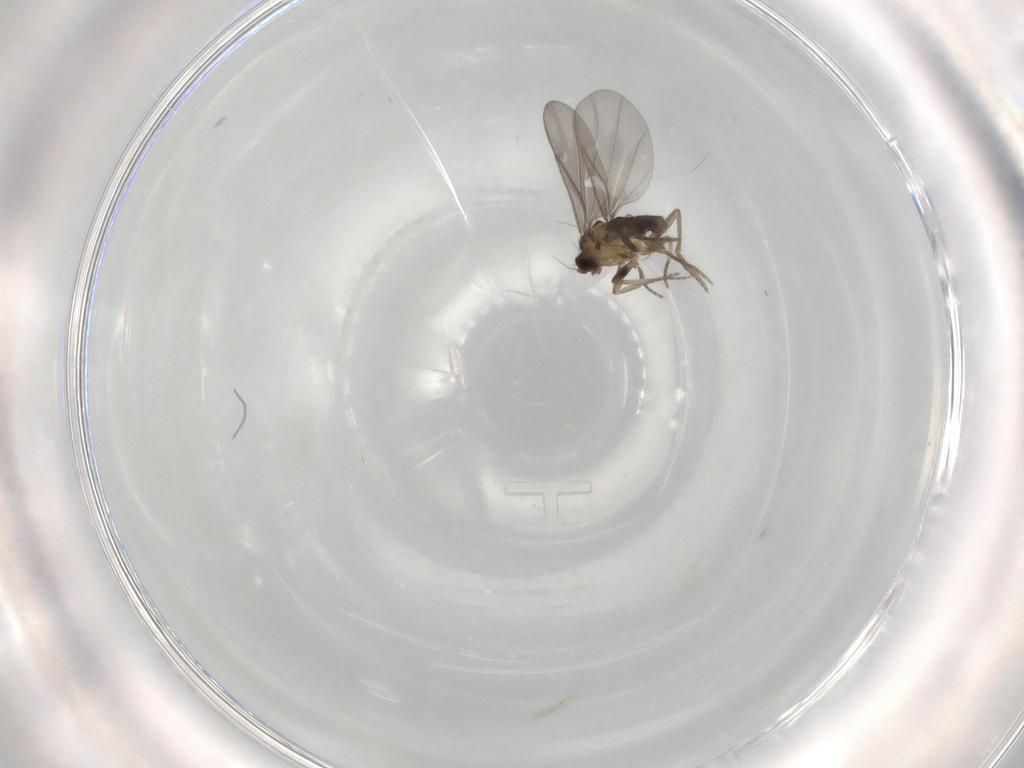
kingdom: Animalia
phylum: Arthropoda
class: Insecta
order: Diptera
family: Phoridae
